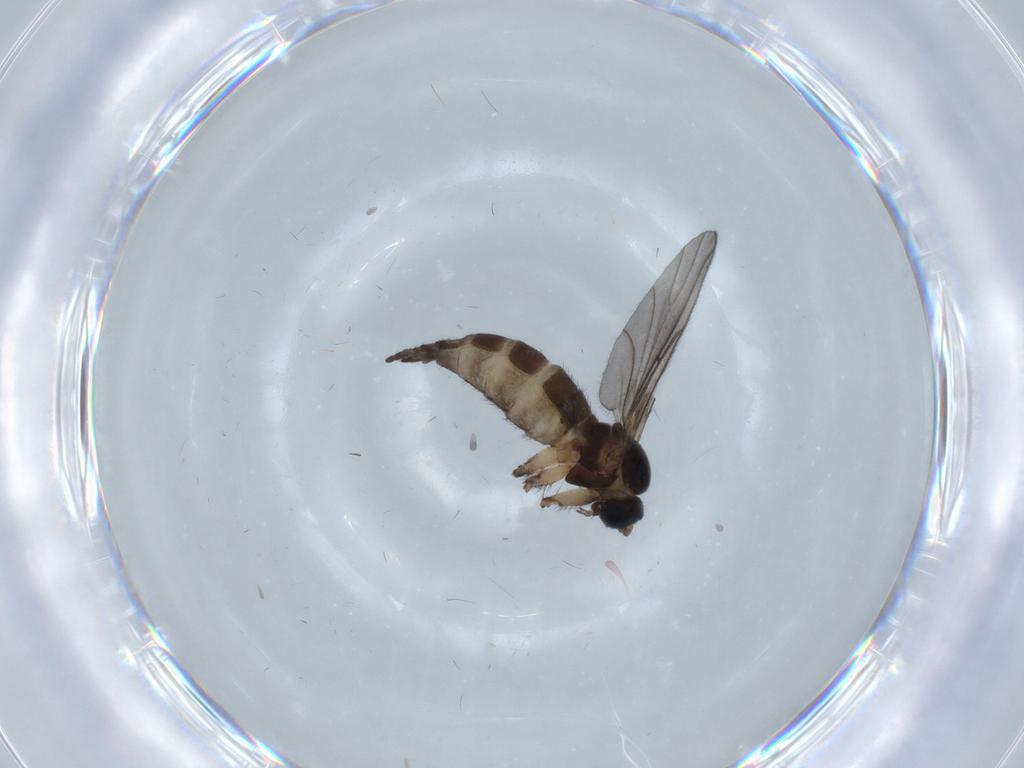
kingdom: Animalia
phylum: Arthropoda
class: Insecta
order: Diptera
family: Sciaridae
